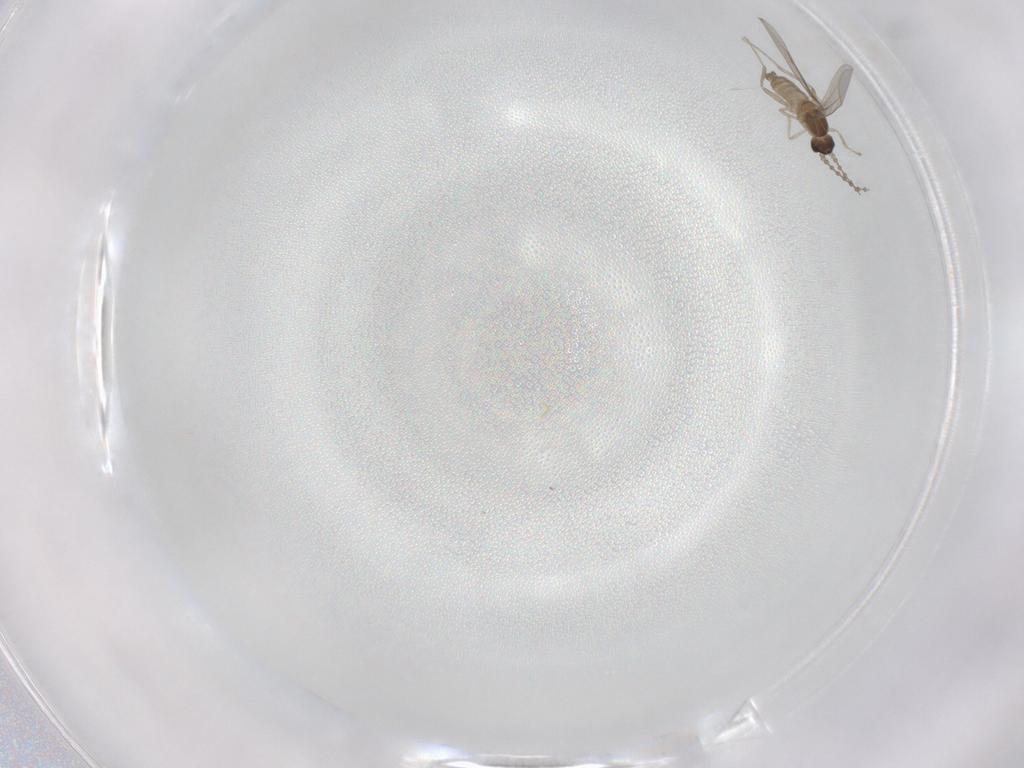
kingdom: Animalia
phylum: Arthropoda
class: Insecta
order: Diptera
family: Cecidomyiidae
